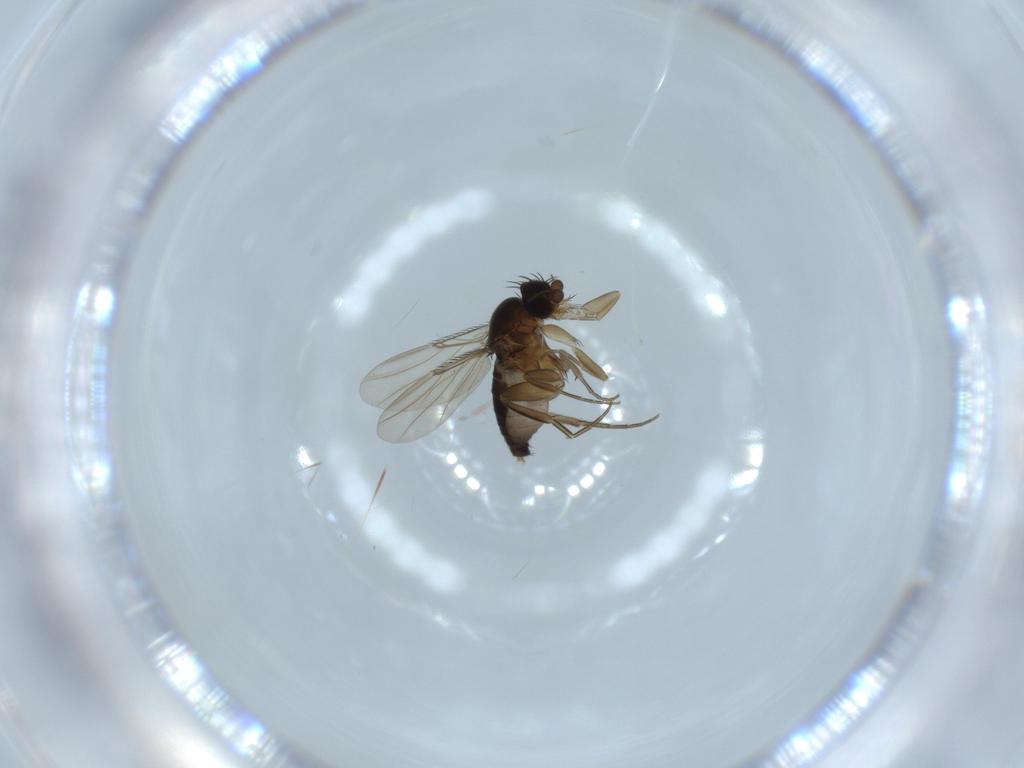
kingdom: Animalia
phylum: Arthropoda
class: Insecta
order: Diptera
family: Phoridae
